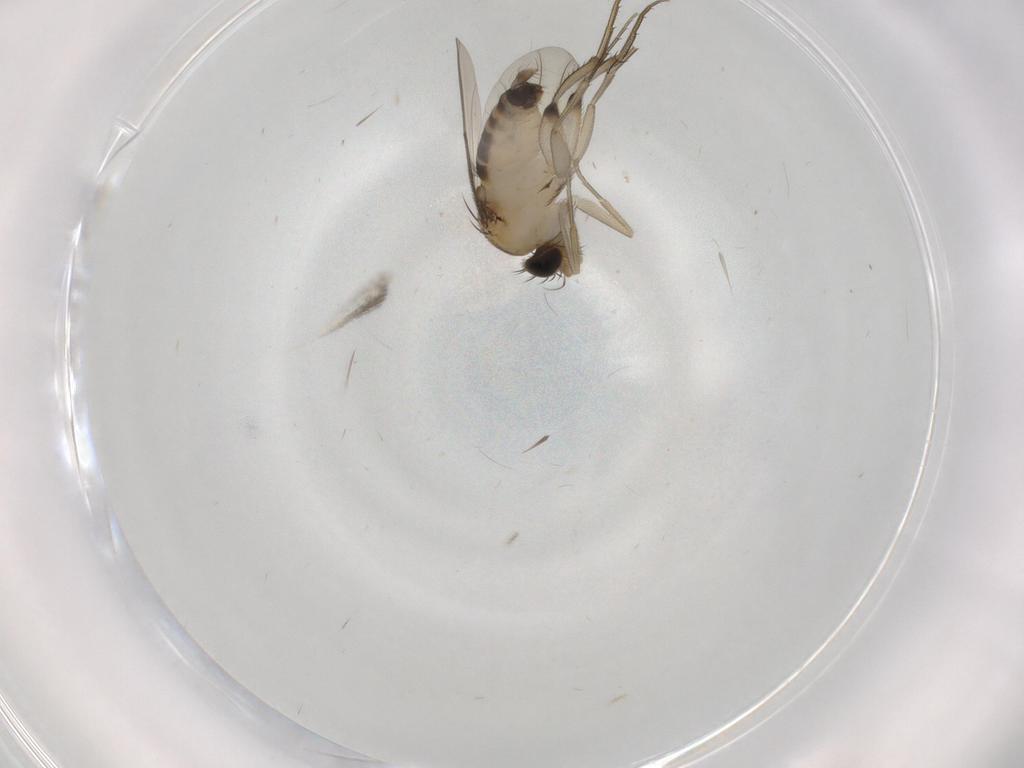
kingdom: Animalia
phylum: Arthropoda
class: Insecta
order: Diptera
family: Phoridae
